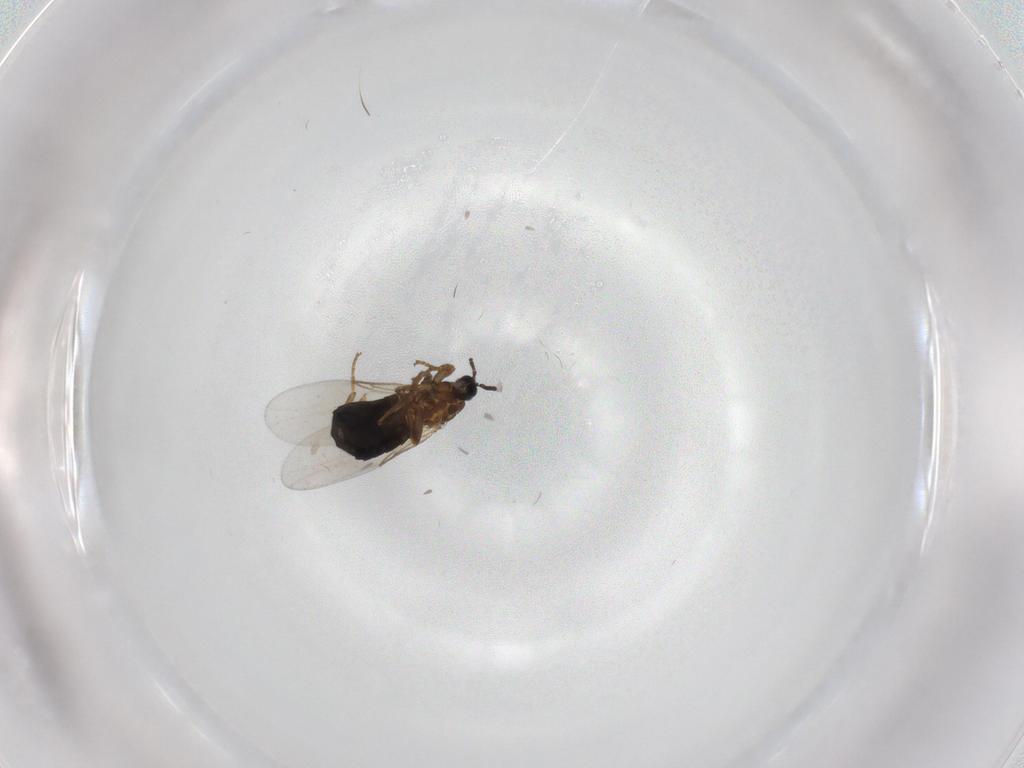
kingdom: Animalia
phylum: Arthropoda
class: Insecta
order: Diptera
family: Scatopsidae
